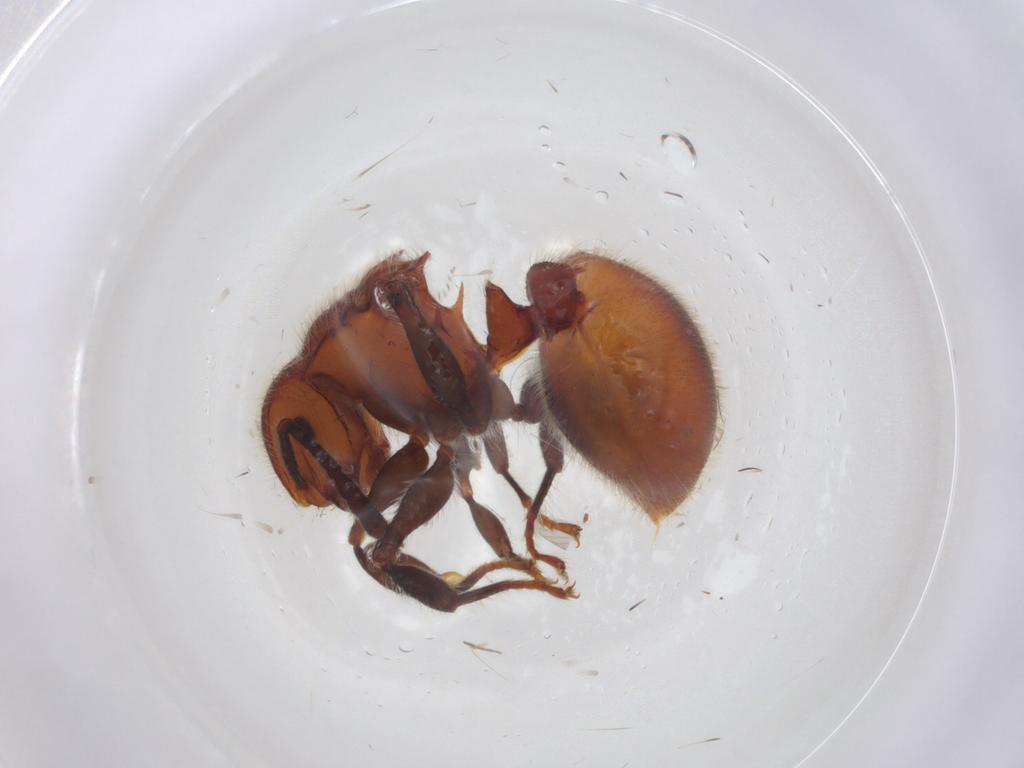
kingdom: Animalia
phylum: Arthropoda
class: Insecta
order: Hymenoptera
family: Formicidae
